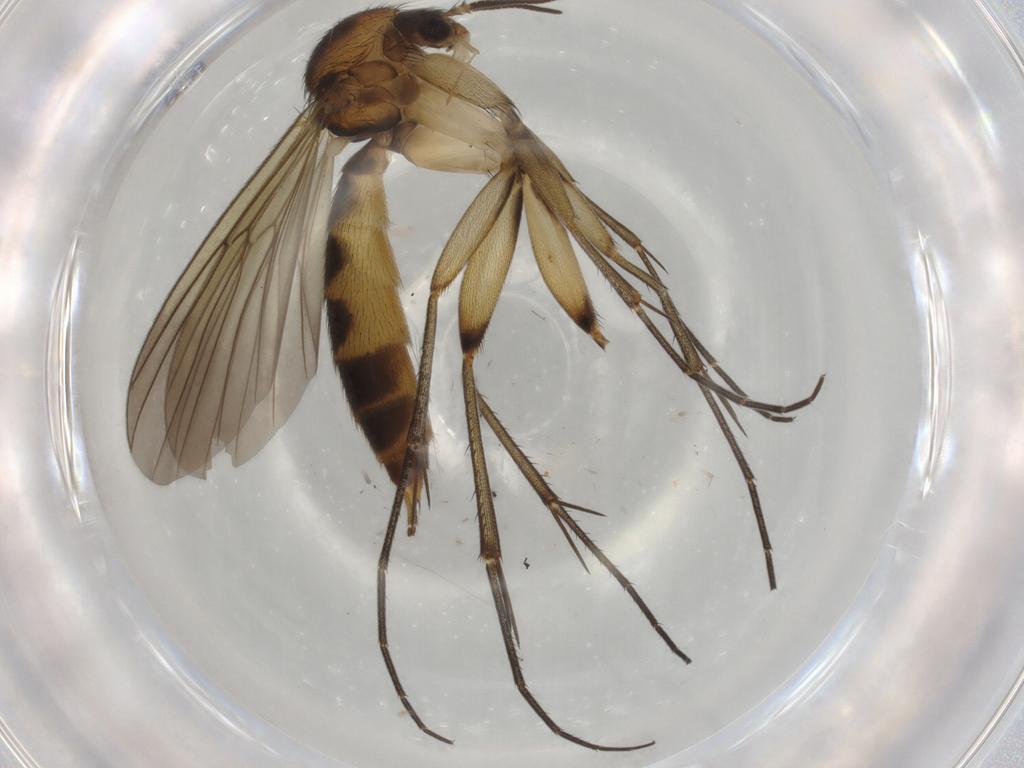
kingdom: Animalia
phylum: Arthropoda
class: Insecta
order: Diptera
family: Mycetophilidae
